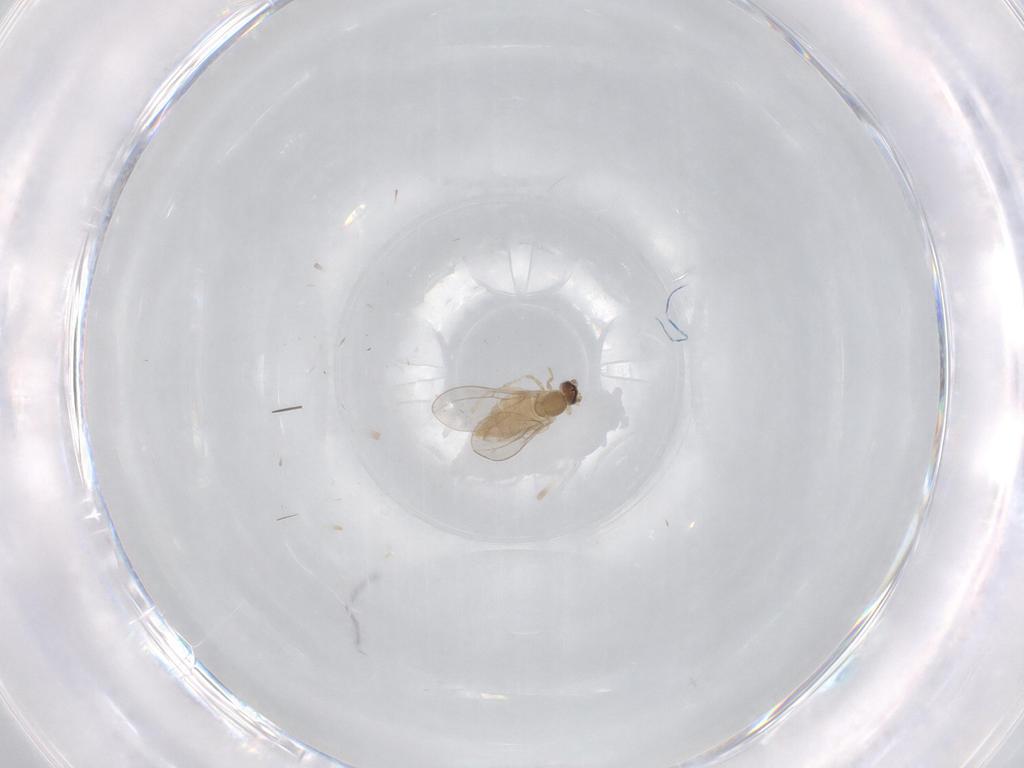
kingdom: Animalia
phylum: Arthropoda
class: Insecta
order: Diptera
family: Cecidomyiidae
